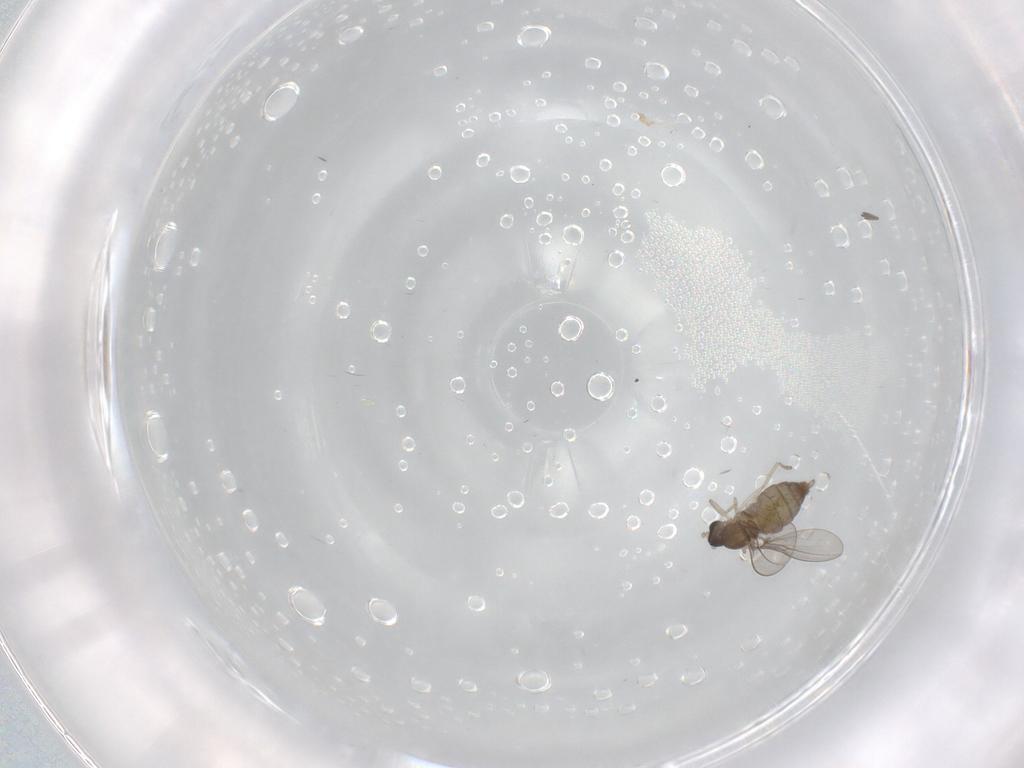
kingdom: Animalia
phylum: Arthropoda
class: Insecta
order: Diptera
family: Cecidomyiidae
